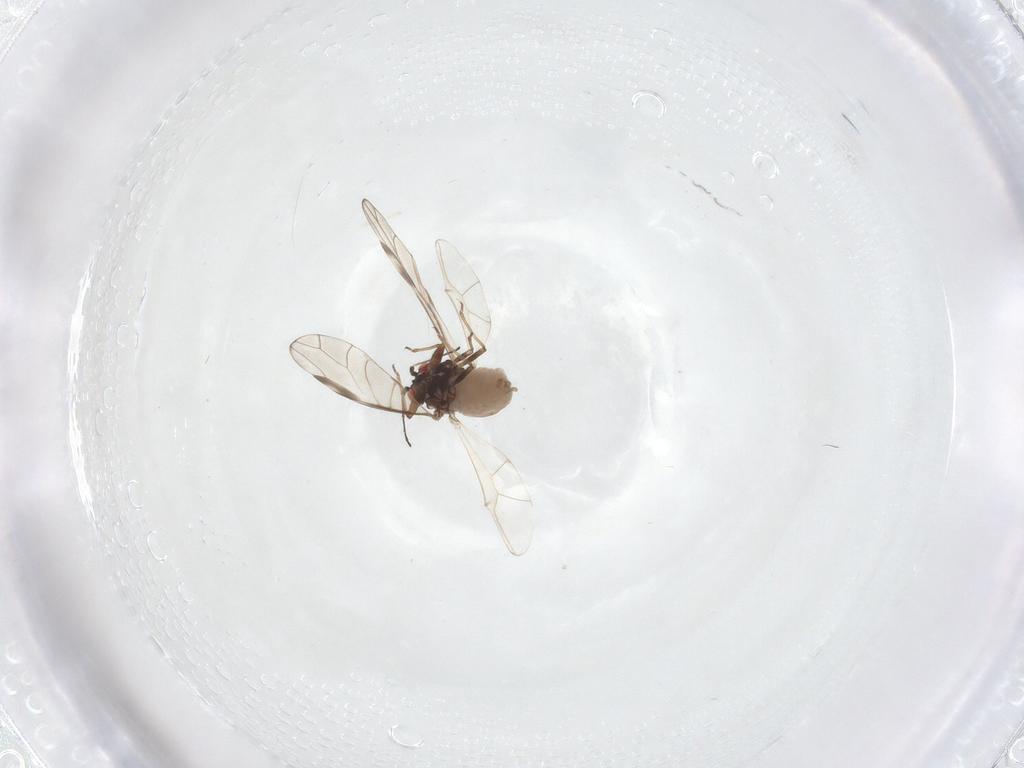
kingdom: Animalia
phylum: Arthropoda
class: Insecta
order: Hemiptera
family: Aphididae
